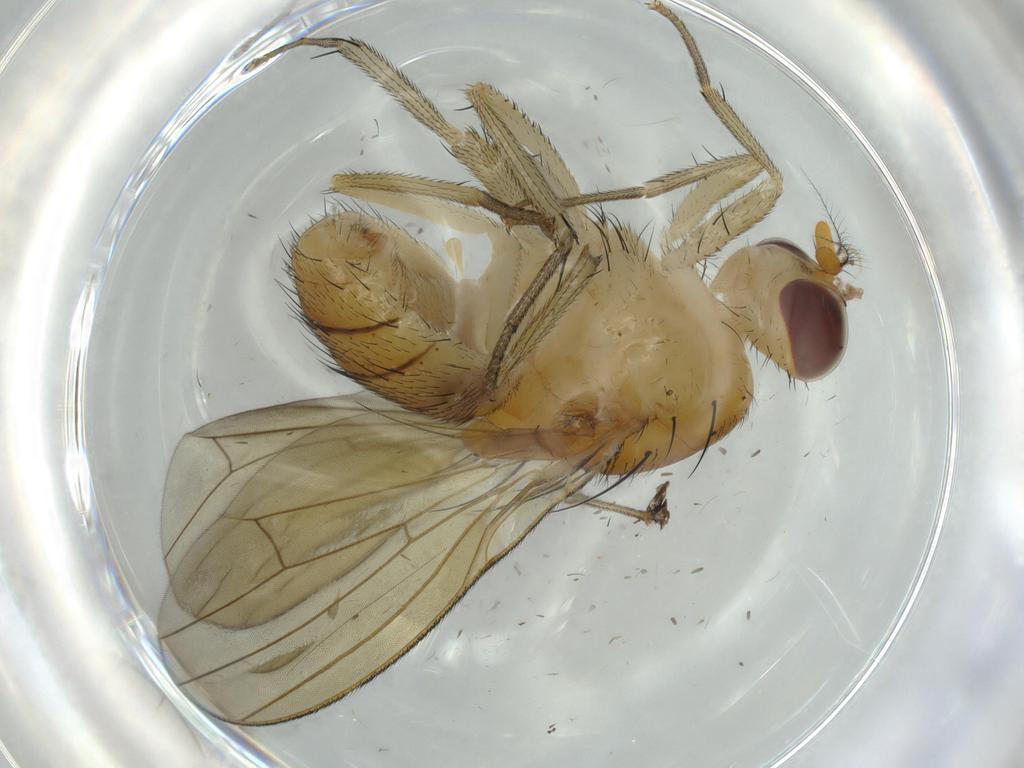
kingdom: Animalia
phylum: Arthropoda
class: Insecta
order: Diptera
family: Cecidomyiidae
